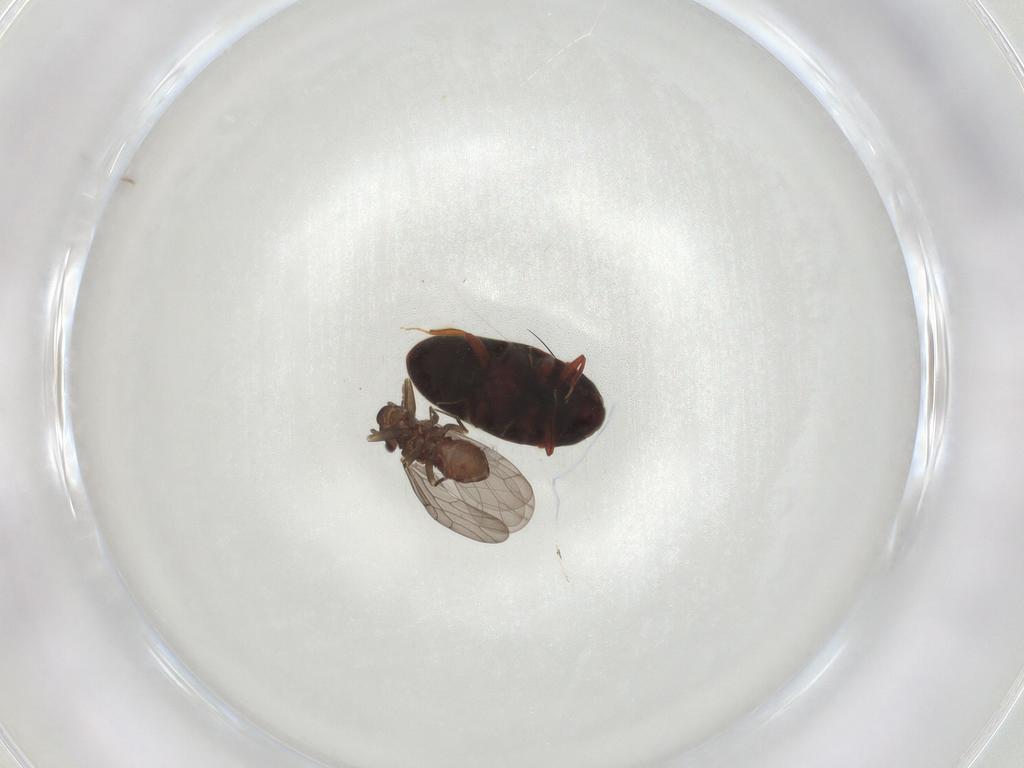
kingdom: Animalia
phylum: Arthropoda
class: Insecta
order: Coleoptera
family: Throscidae
